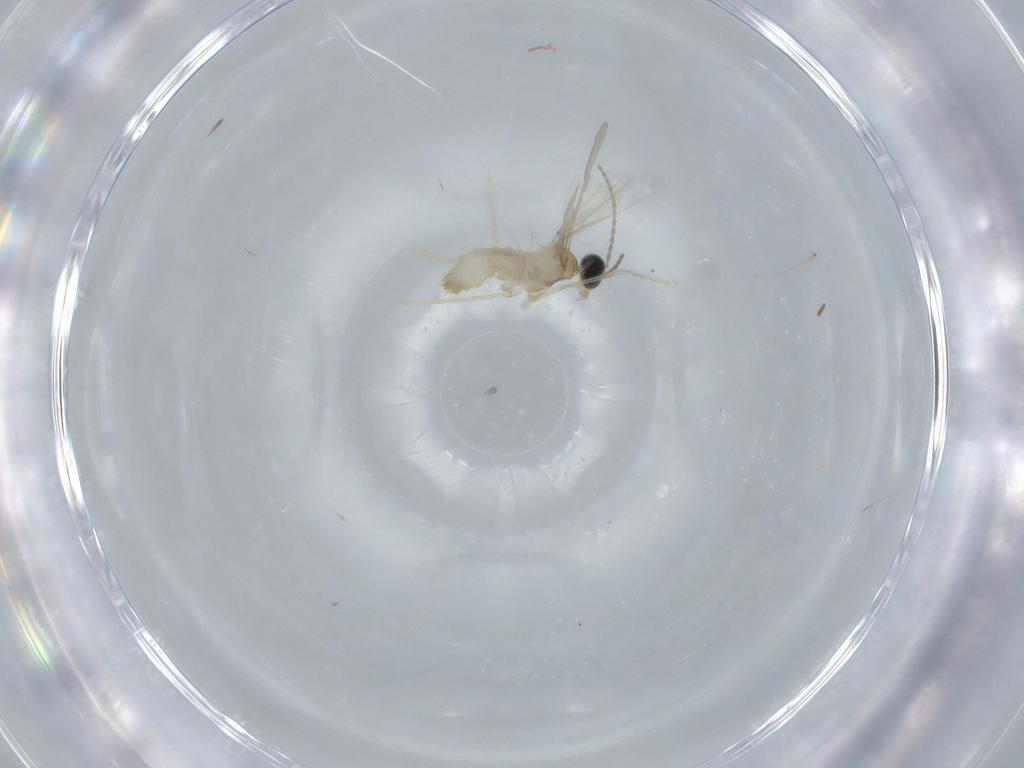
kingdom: Animalia
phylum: Arthropoda
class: Insecta
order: Diptera
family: Cecidomyiidae
